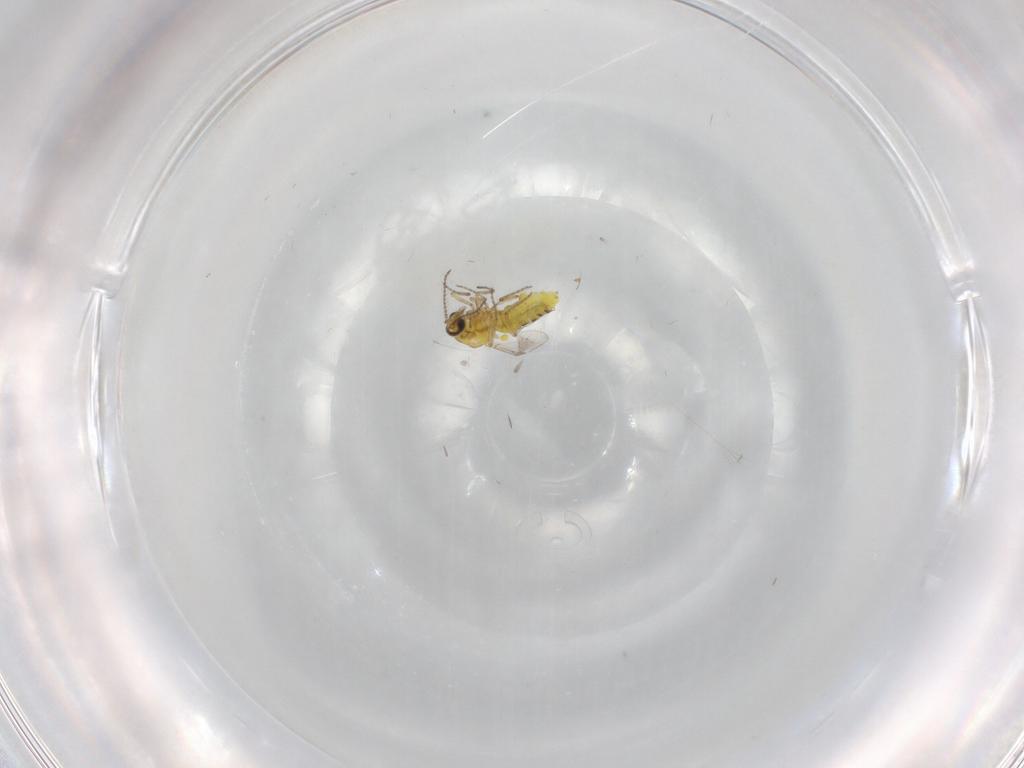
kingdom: Animalia
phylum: Arthropoda
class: Insecta
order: Diptera
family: Ceratopogonidae
